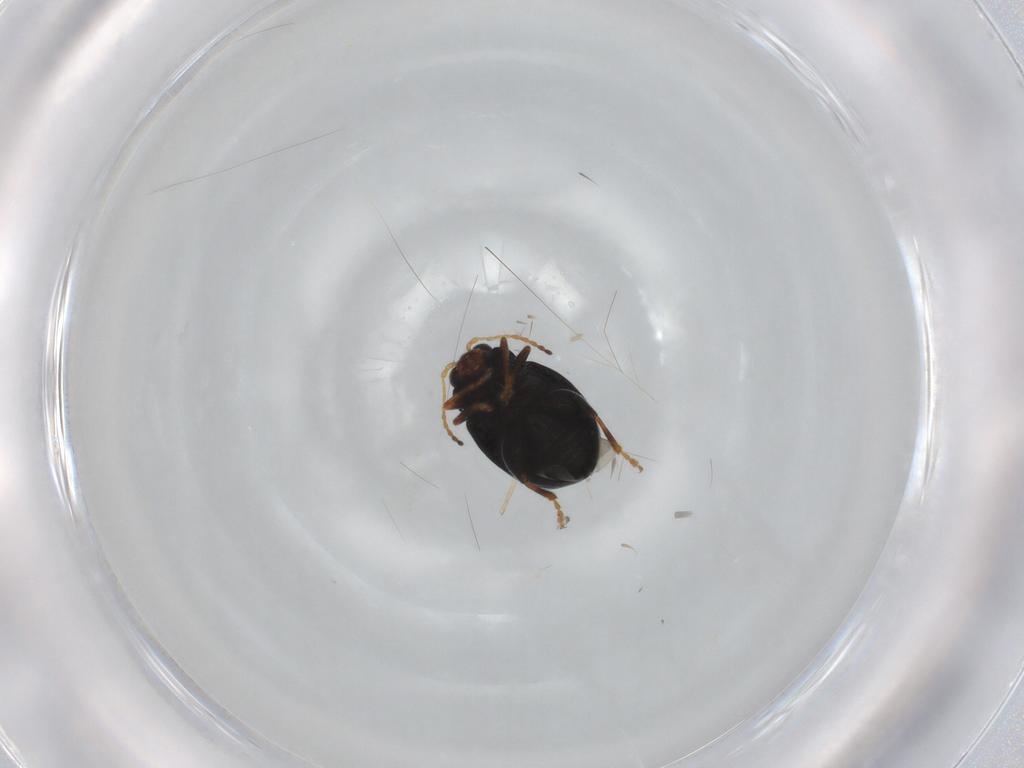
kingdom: Animalia
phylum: Arthropoda
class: Insecta
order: Coleoptera
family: Chrysomelidae
